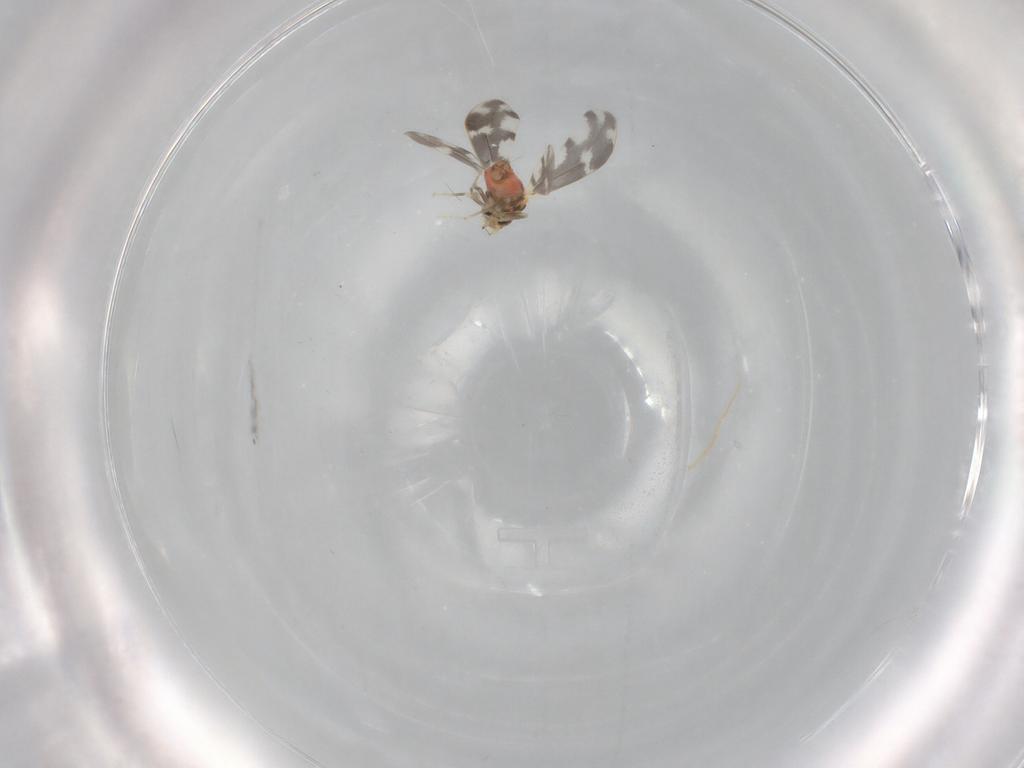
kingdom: Animalia
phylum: Arthropoda
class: Insecta
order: Hemiptera
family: Aleyrodidae
